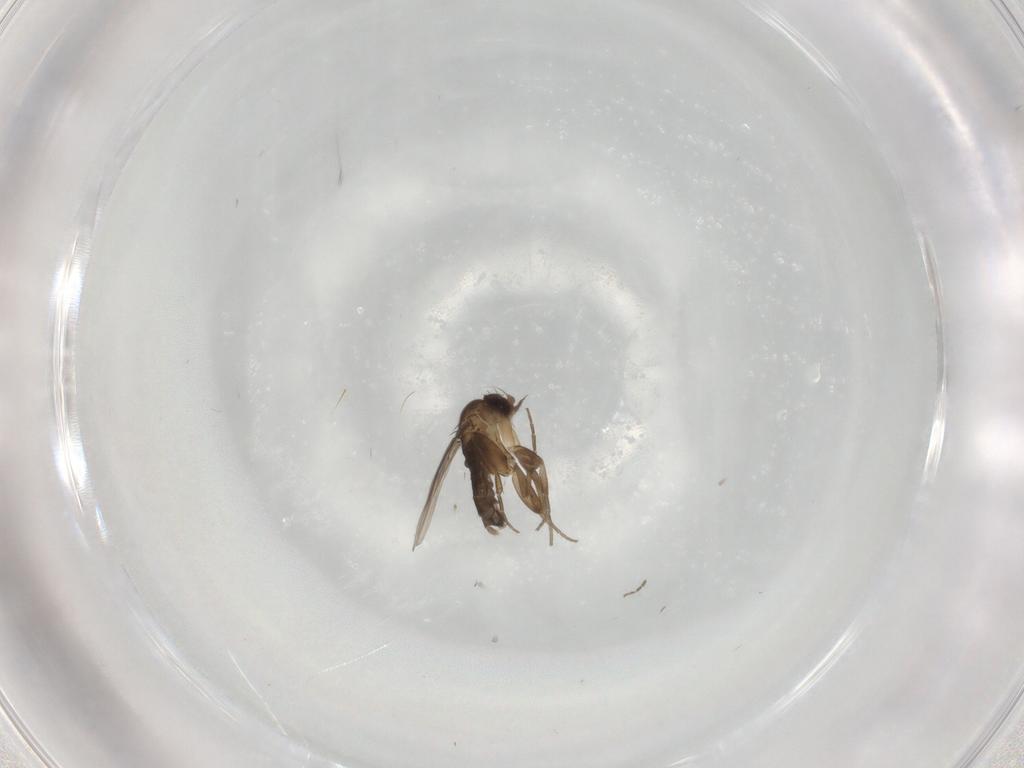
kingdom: Animalia
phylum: Arthropoda
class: Insecta
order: Diptera
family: Phoridae
